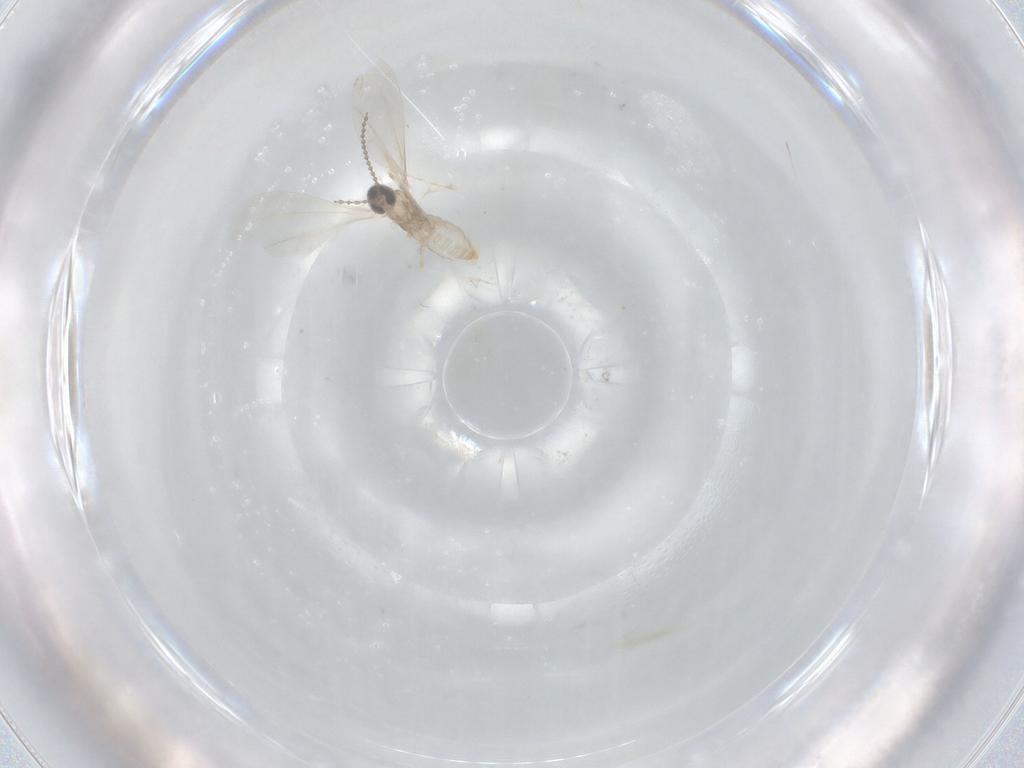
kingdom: Animalia
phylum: Arthropoda
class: Insecta
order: Diptera
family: Cecidomyiidae
